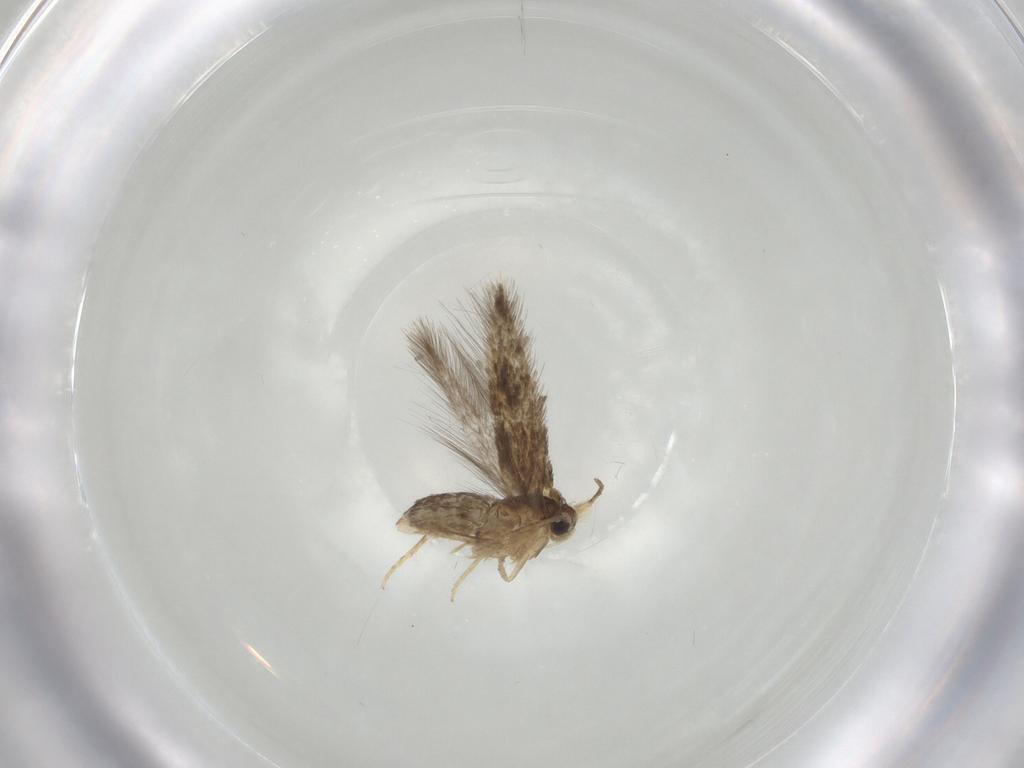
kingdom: Animalia
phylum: Arthropoda
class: Insecta
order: Lepidoptera
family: Nepticulidae
